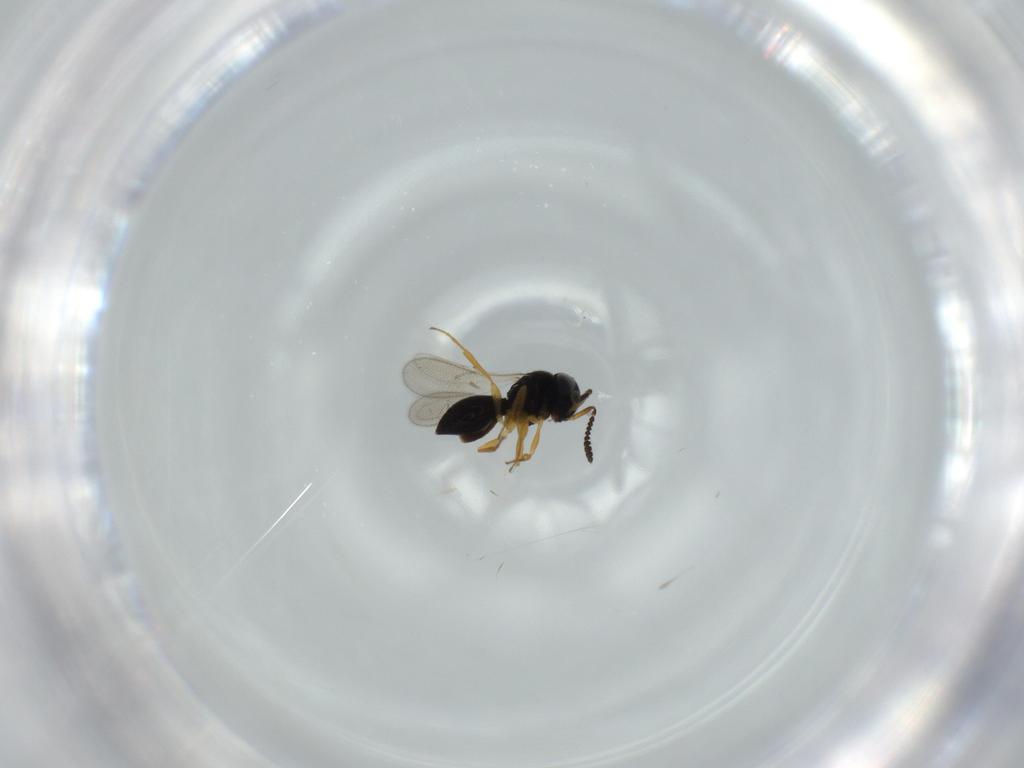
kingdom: Animalia
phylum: Arthropoda
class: Insecta
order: Hymenoptera
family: Scelionidae
